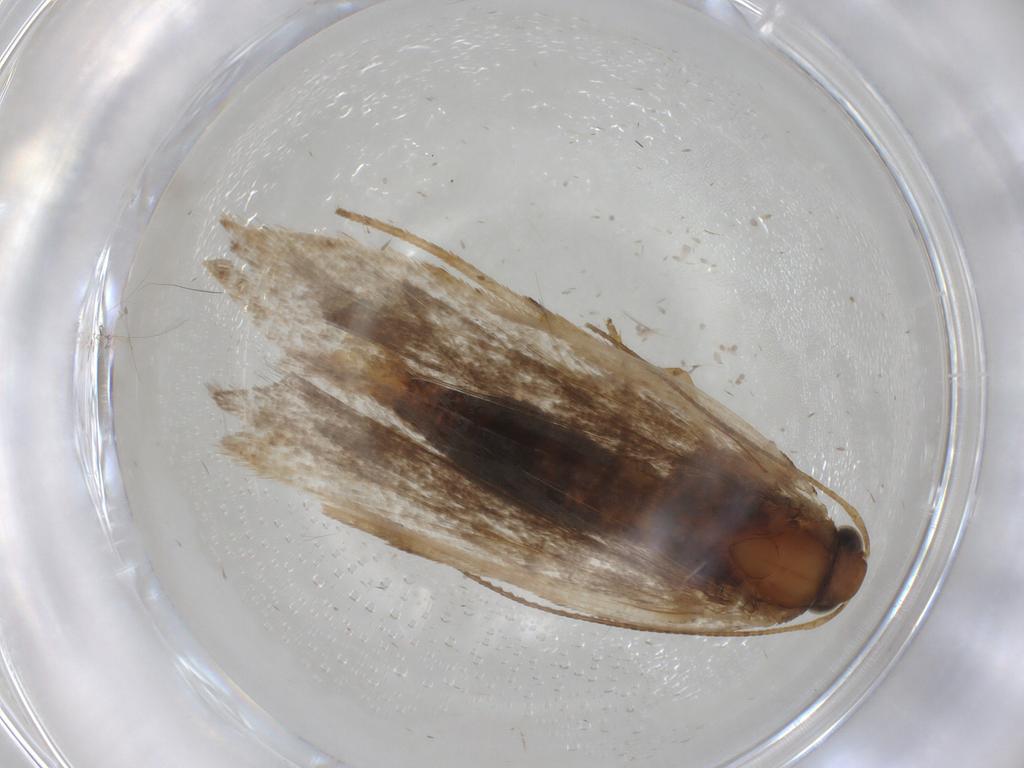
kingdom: Animalia
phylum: Arthropoda
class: Insecta
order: Lepidoptera
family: Gelechiidae
